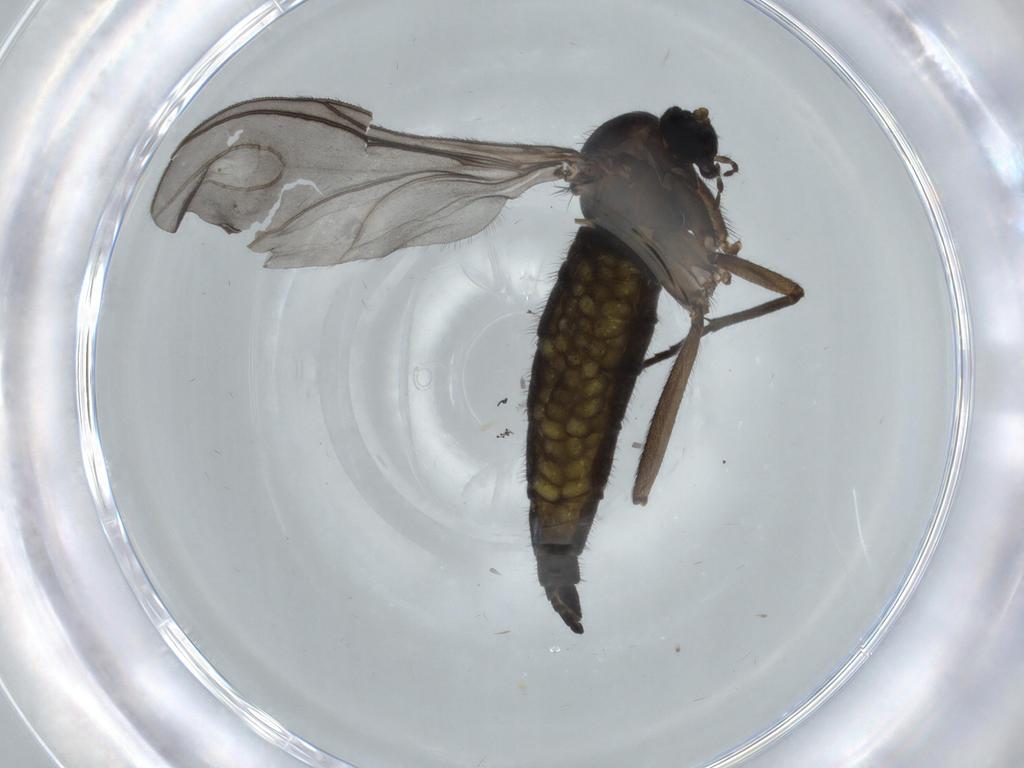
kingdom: Animalia
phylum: Arthropoda
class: Insecta
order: Diptera
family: Sciaridae
